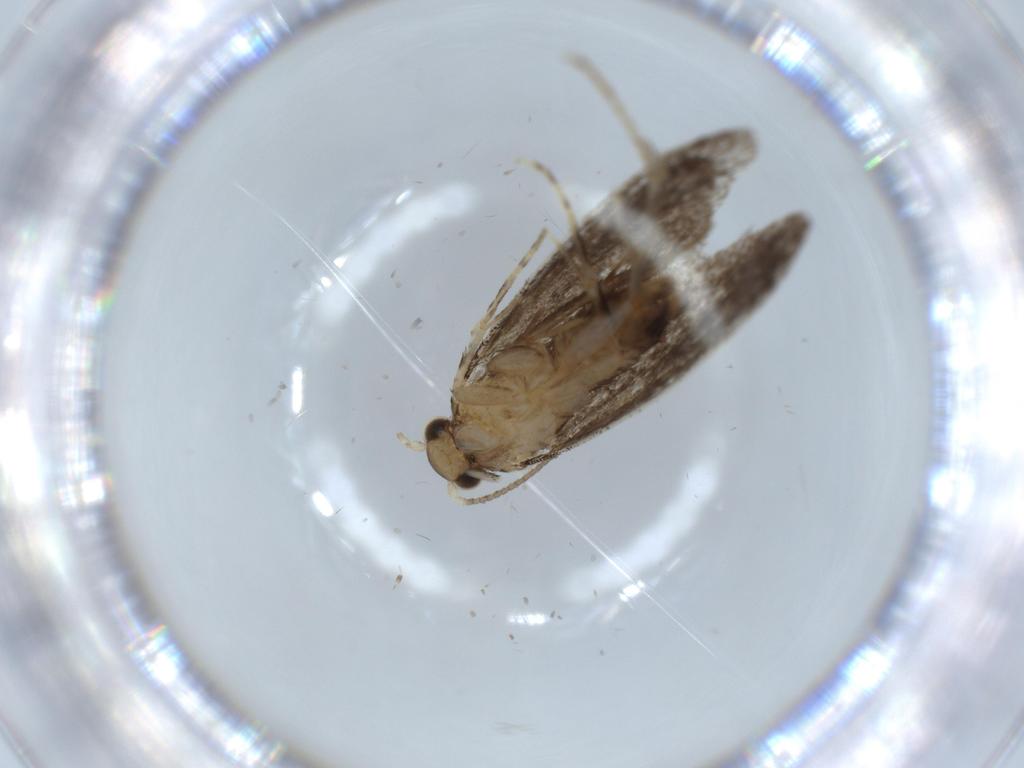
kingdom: Animalia
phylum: Arthropoda
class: Insecta
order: Lepidoptera
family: Tineidae
